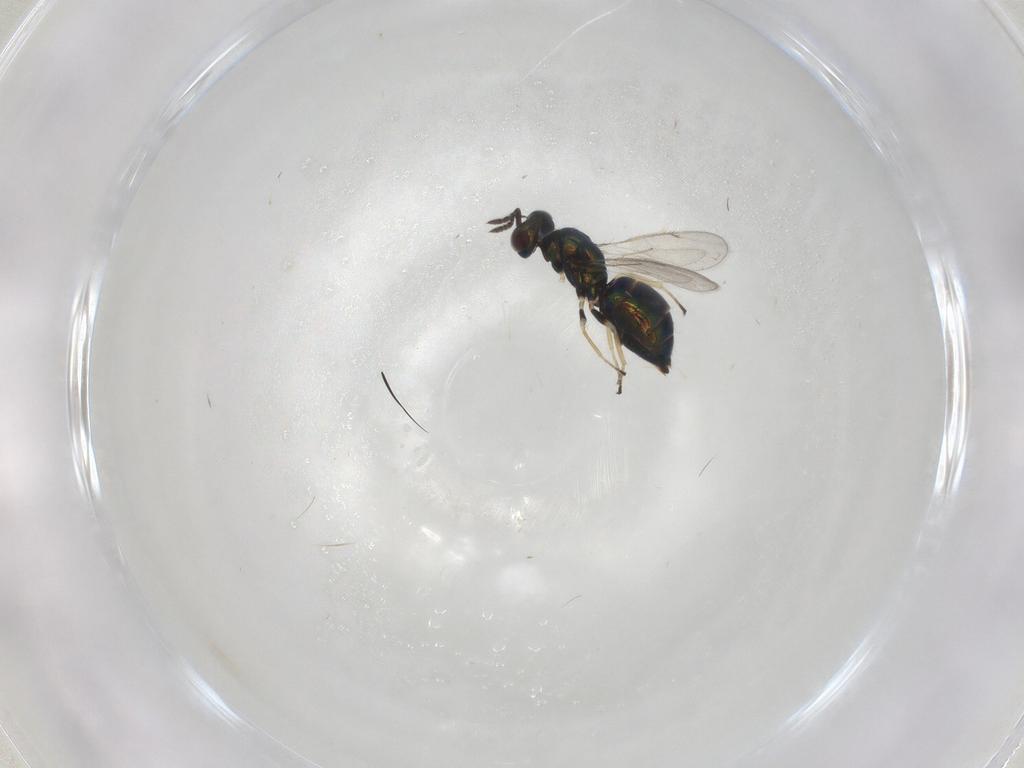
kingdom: Animalia
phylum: Arthropoda
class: Insecta
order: Hymenoptera
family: Eulophidae
